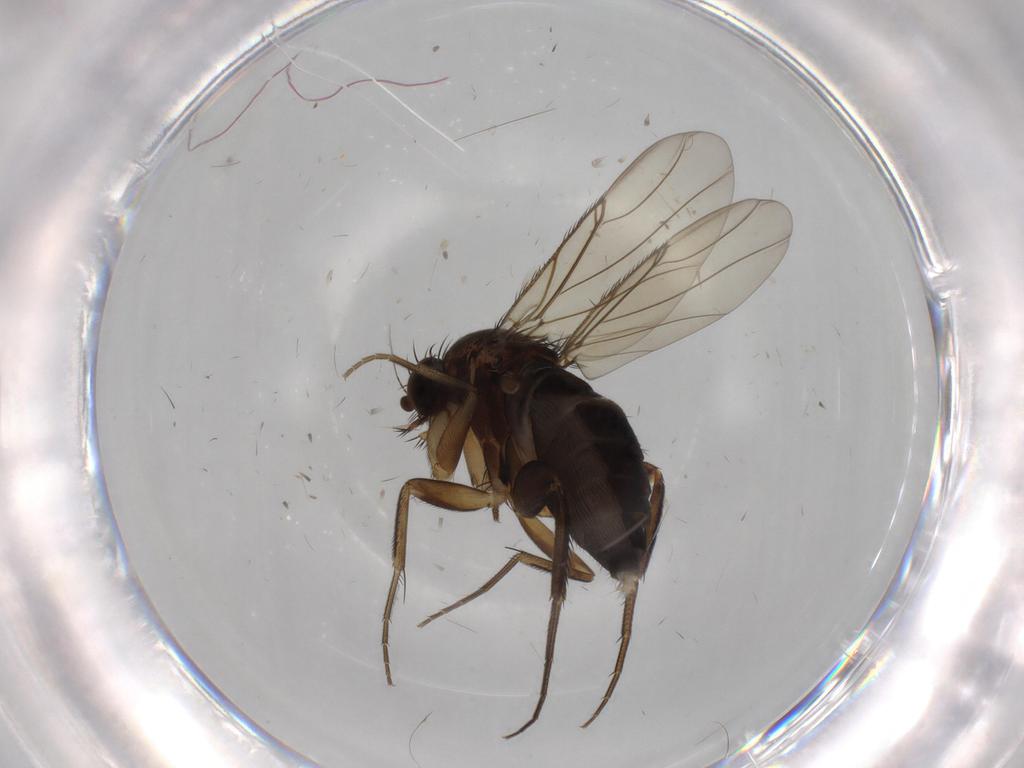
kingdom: Animalia
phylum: Arthropoda
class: Insecta
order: Diptera
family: Phoridae
